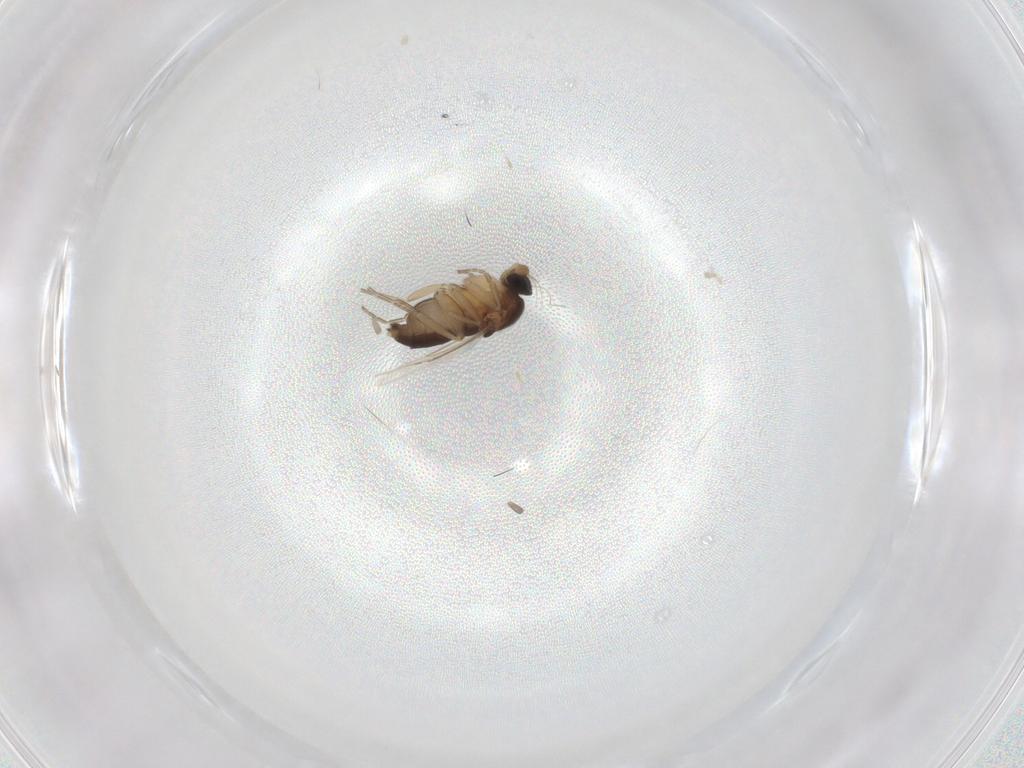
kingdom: Animalia
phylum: Arthropoda
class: Insecta
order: Diptera
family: Phoridae
